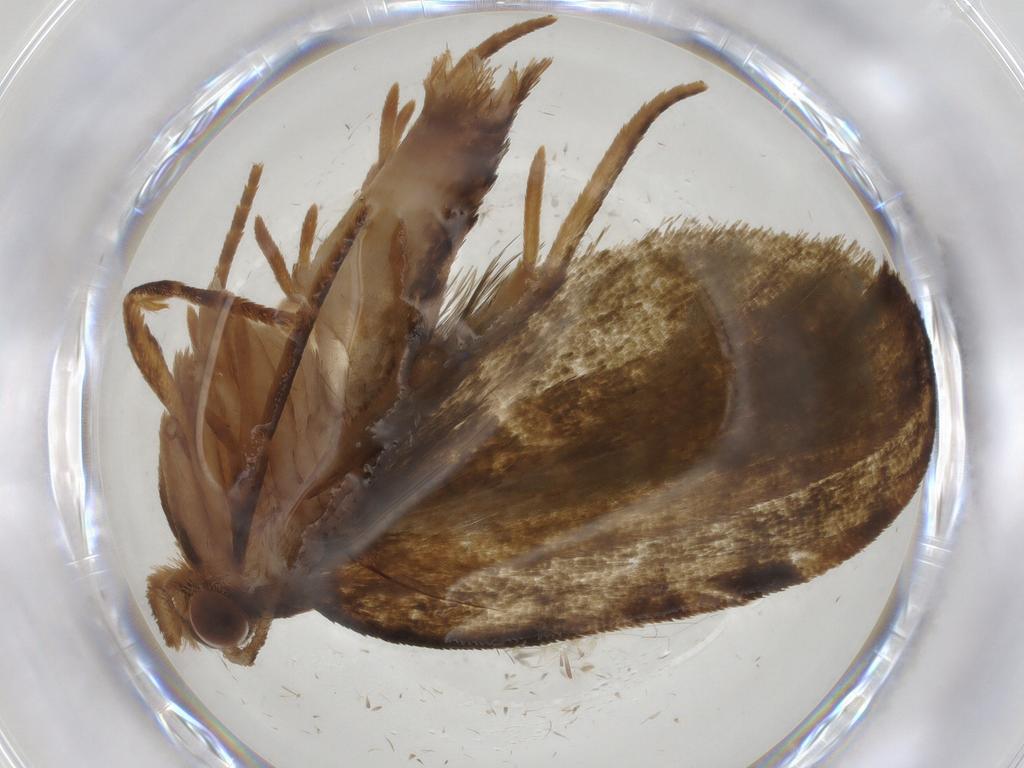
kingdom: Animalia
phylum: Arthropoda
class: Insecta
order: Lepidoptera
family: Geometridae
